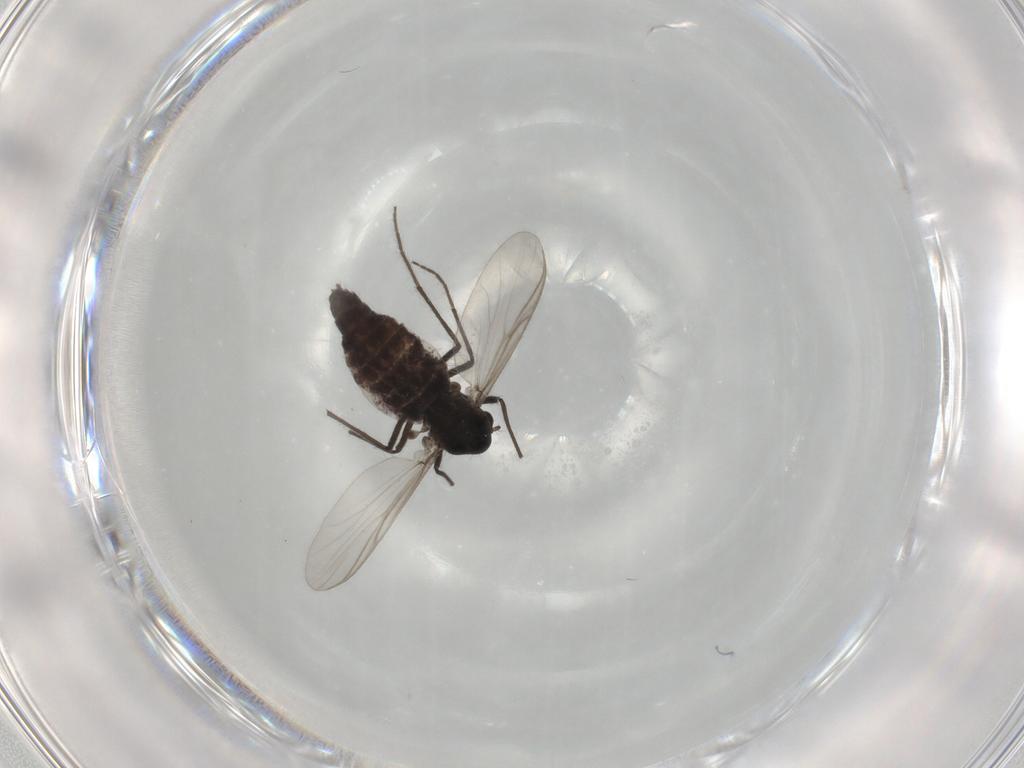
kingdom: Animalia
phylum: Arthropoda
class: Insecta
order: Diptera
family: Chironomidae
